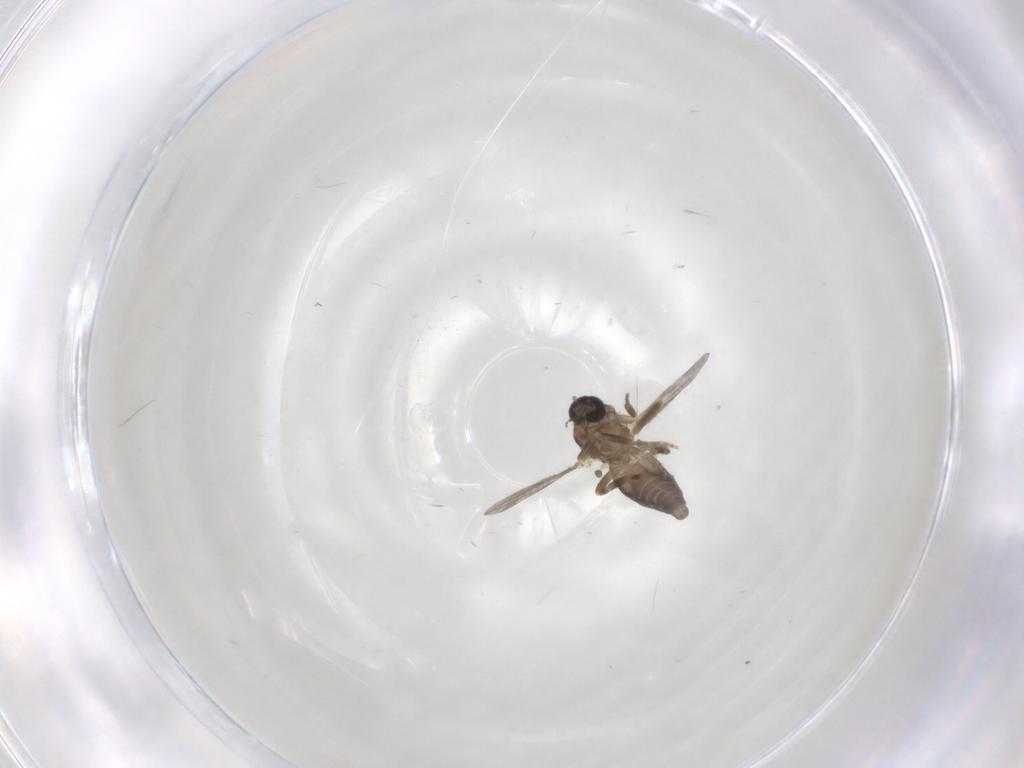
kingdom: Animalia
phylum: Arthropoda
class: Insecta
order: Diptera
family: Ceratopogonidae
